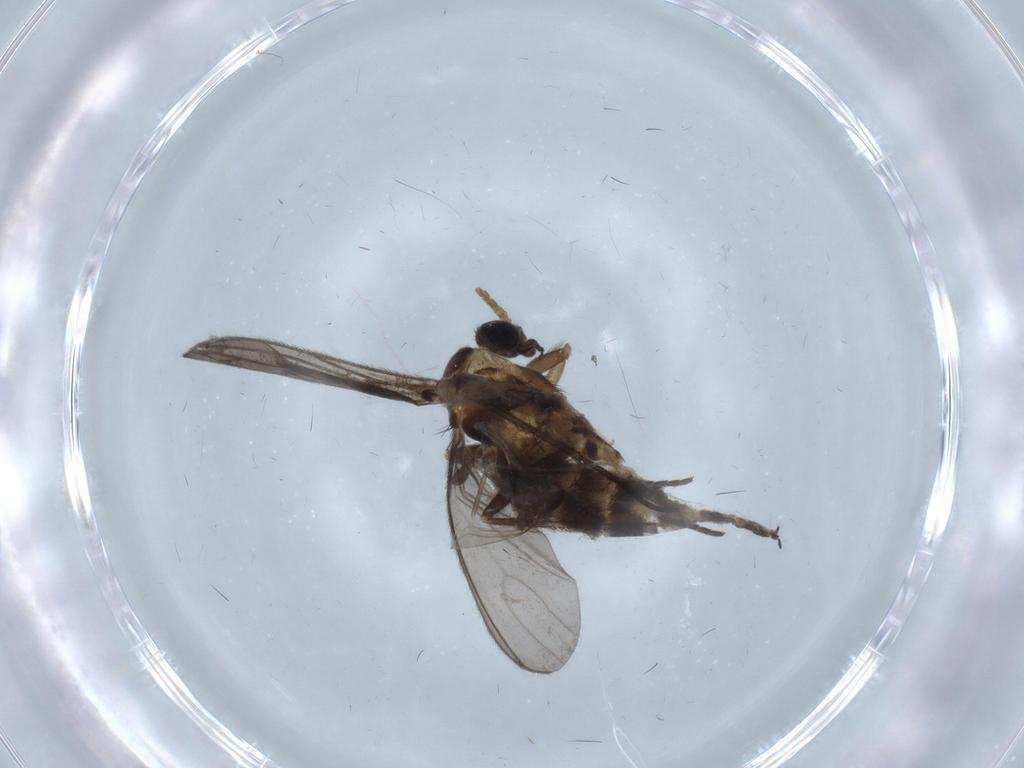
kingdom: Animalia
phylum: Arthropoda
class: Insecta
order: Diptera
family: Sciaridae
